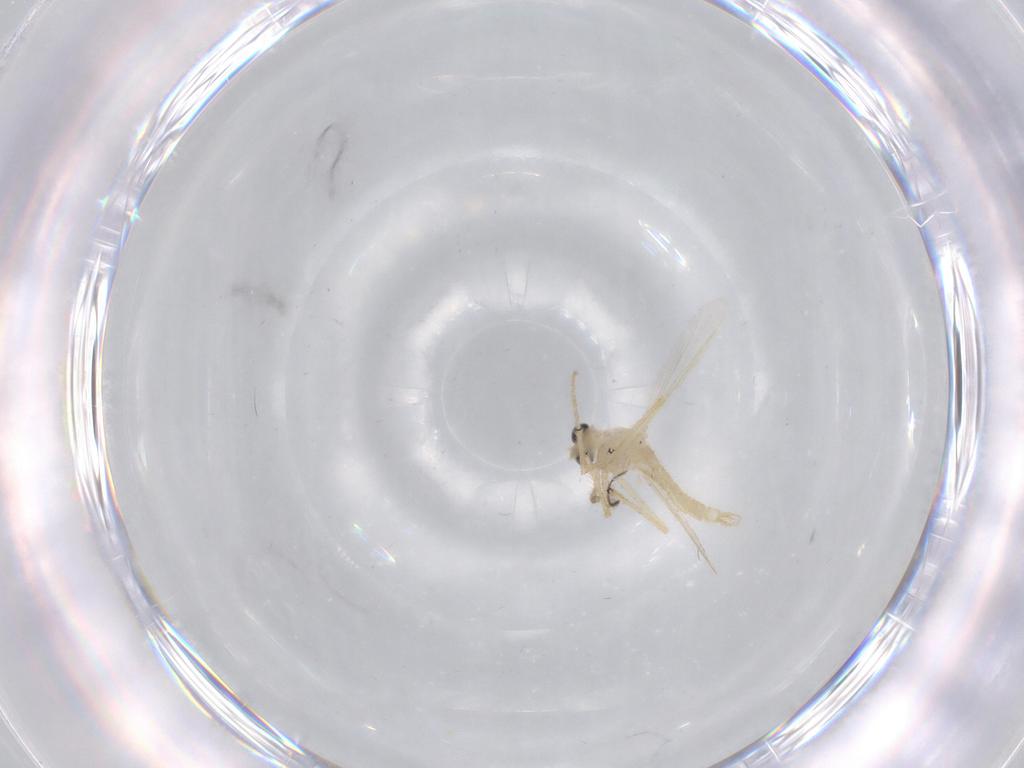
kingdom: Animalia
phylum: Arthropoda
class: Insecta
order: Diptera
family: Chironomidae
